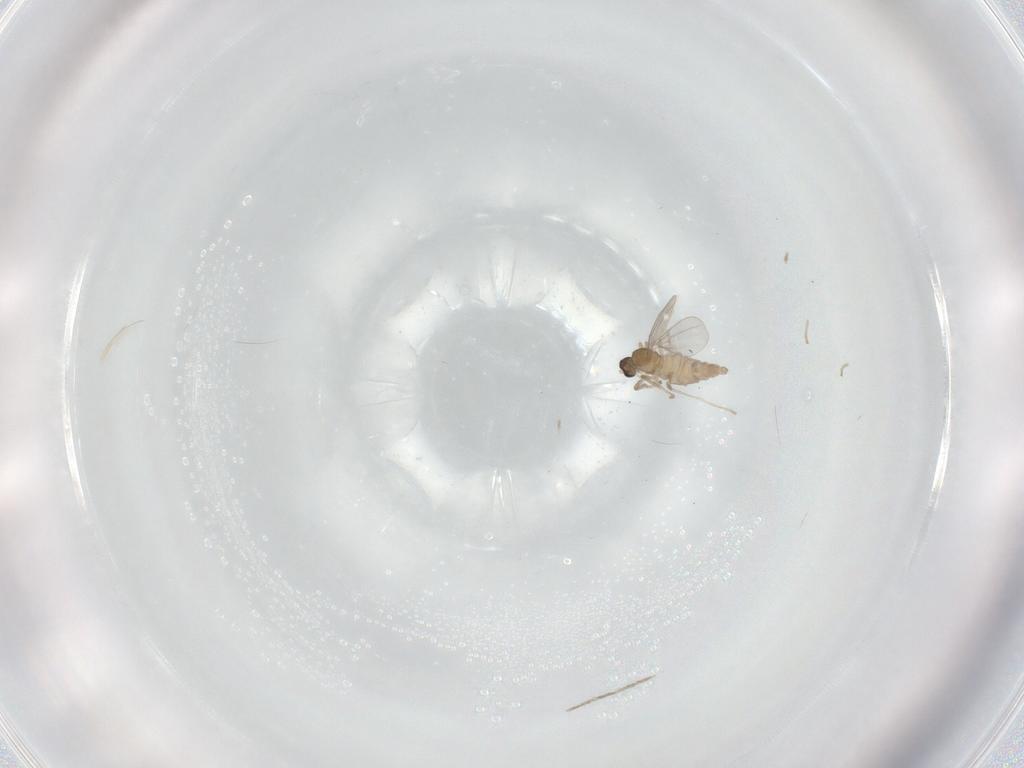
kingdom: Animalia
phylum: Arthropoda
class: Insecta
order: Diptera
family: Cecidomyiidae
